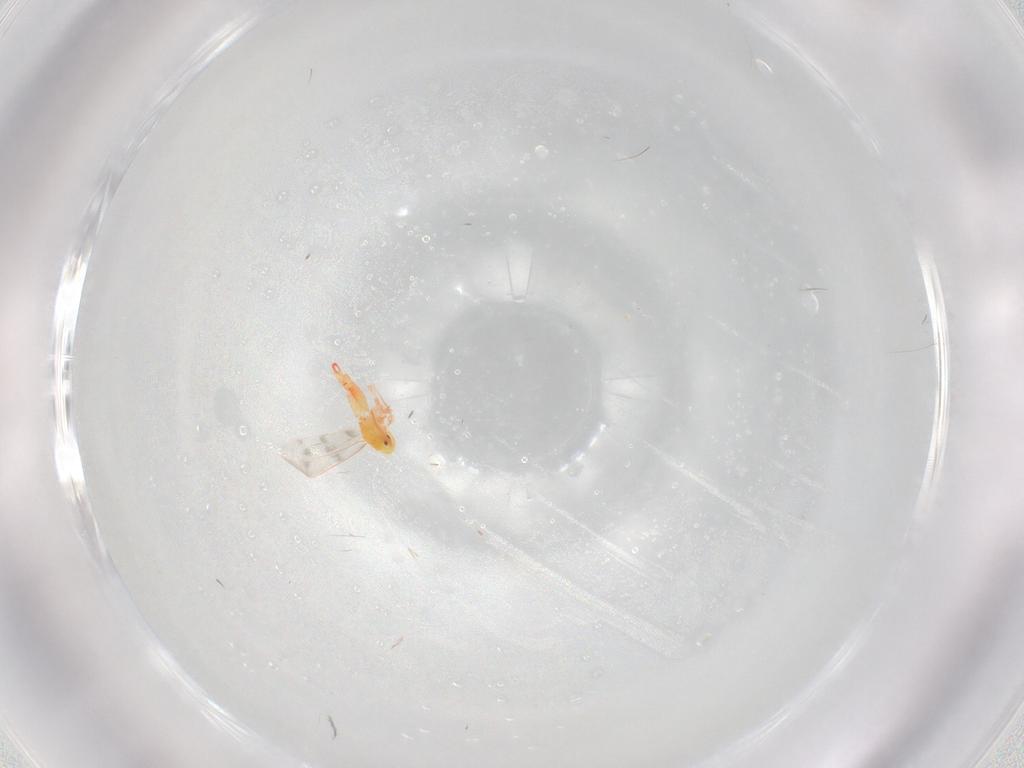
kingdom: Animalia
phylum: Arthropoda
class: Insecta
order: Hemiptera
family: Aleyrodidae
